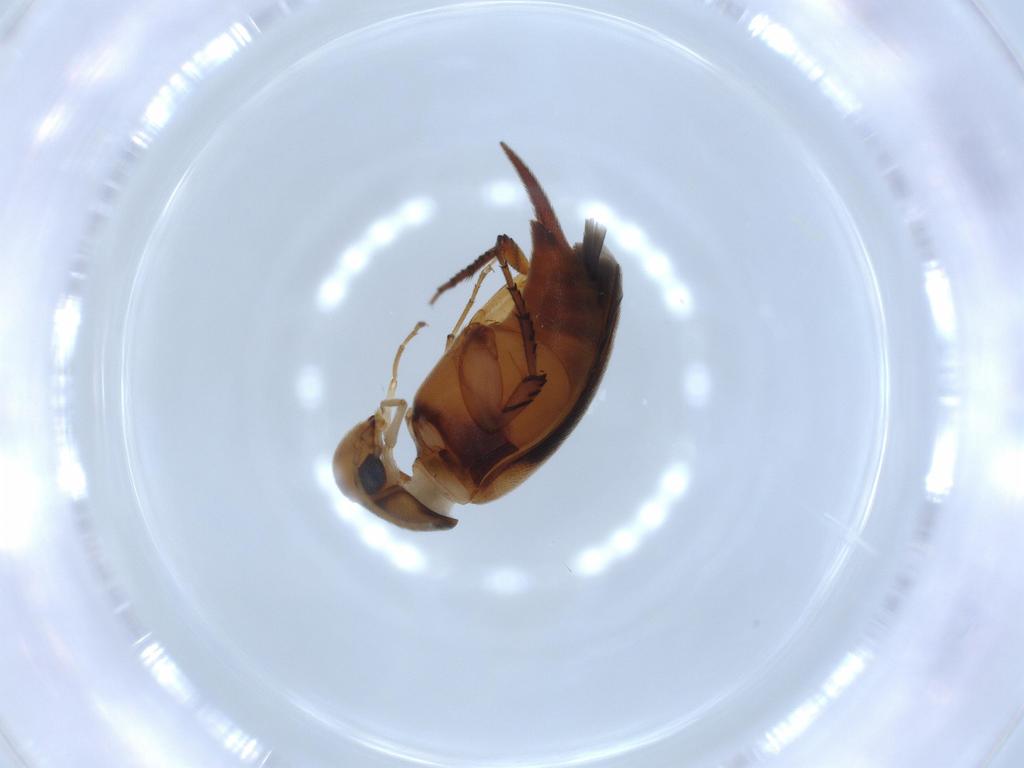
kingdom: Animalia
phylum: Arthropoda
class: Insecta
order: Coleoptera
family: Mordellidae
